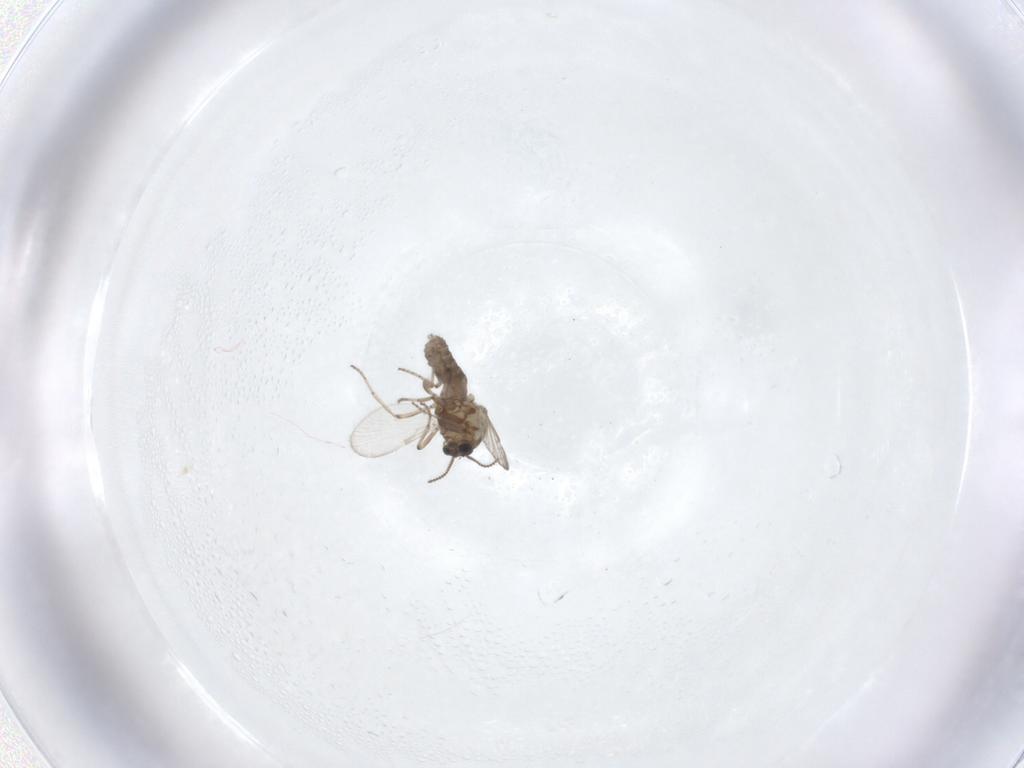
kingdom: Animalia
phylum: Arthropoda
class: Insecta
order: Diptera
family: Ceratopogonidae
